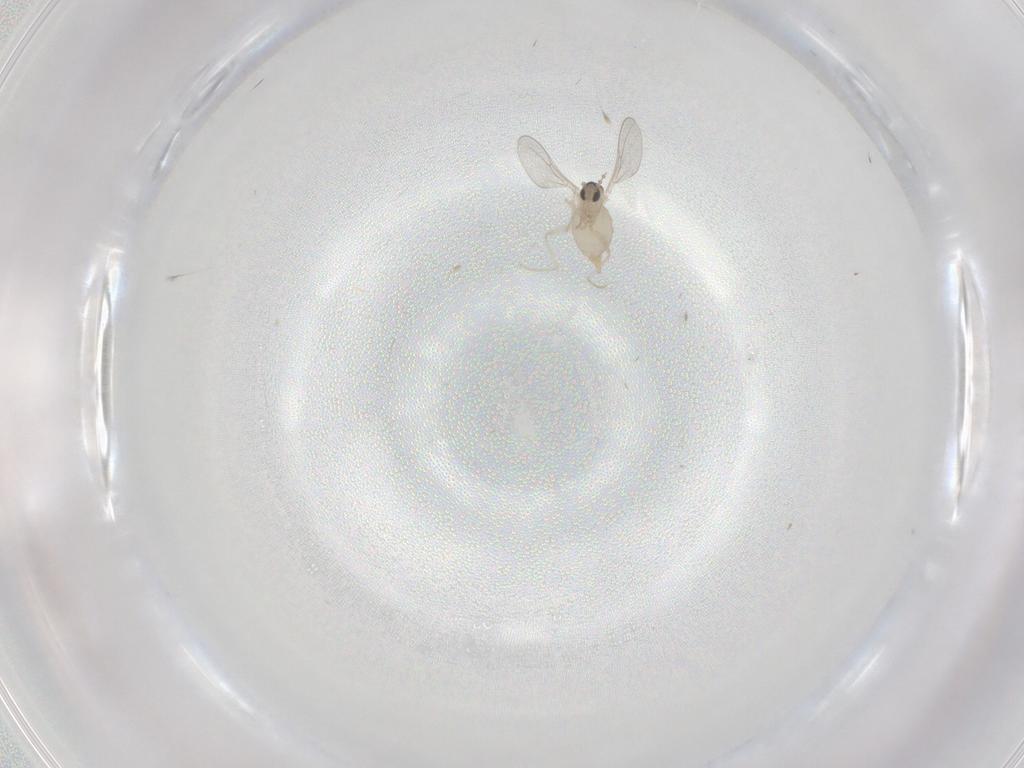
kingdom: Animalia
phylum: Arthropoda
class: Insecta
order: Diptera
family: Cecidomyiidae
